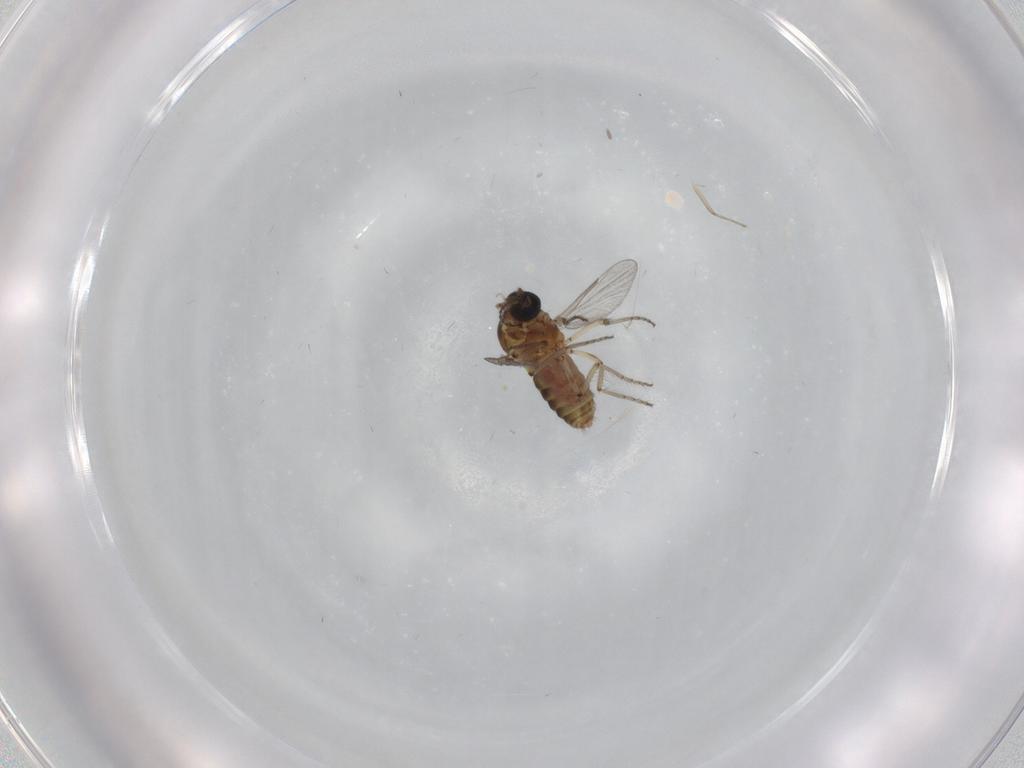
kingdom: Animalia
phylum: Arthropoda
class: Insecta
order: Diptera
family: Ceratopogonidae
